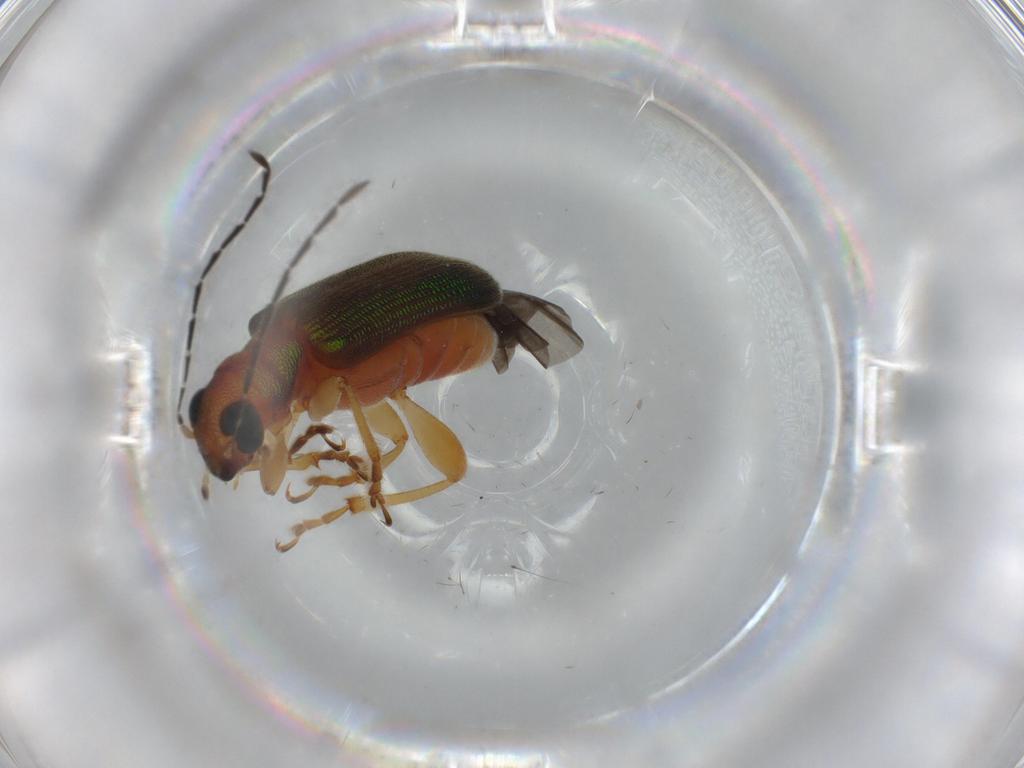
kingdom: Animalia
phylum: Arthropoda
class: Insecta
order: Coleoptera
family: Chrysomelidae
